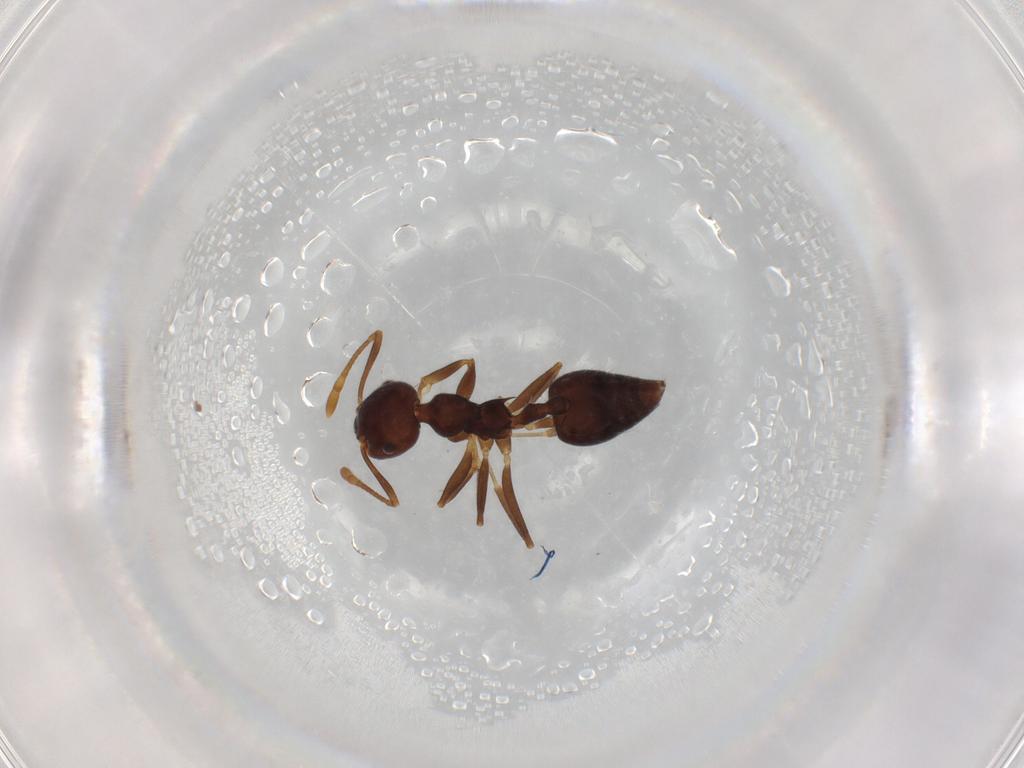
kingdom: Animalia
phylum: Arthropoda
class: Insecta
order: Hymenoptera
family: Formicidae
